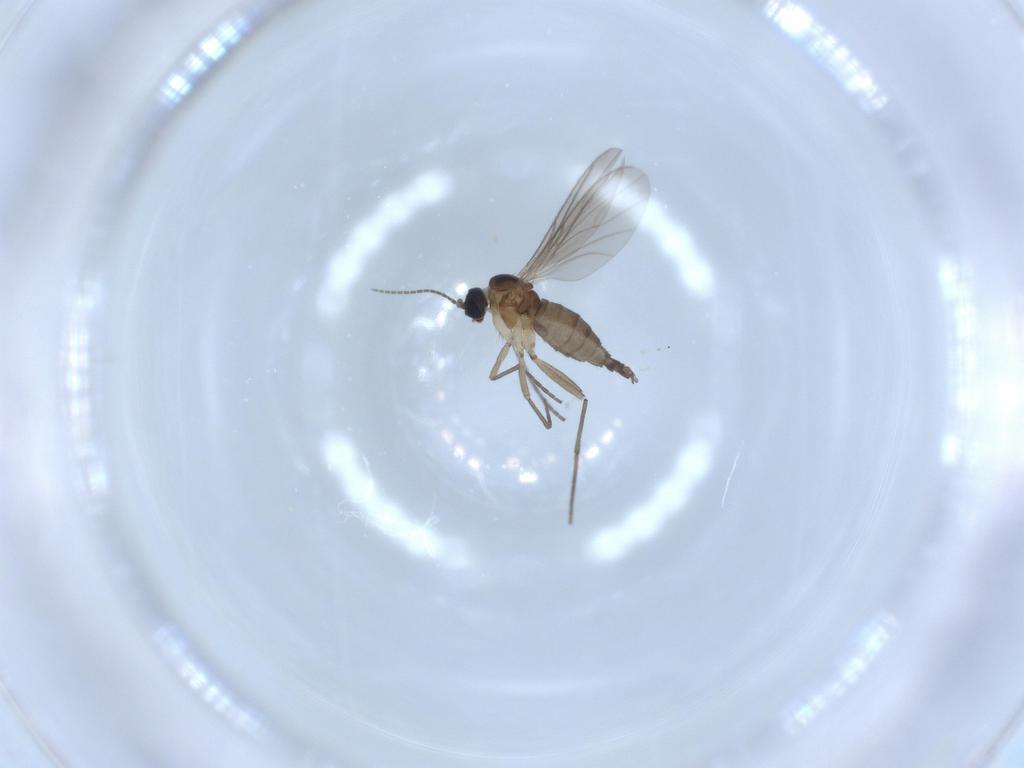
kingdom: Animalia
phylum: Arthropoda
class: Insecta
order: Diptera
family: Sciaridae
